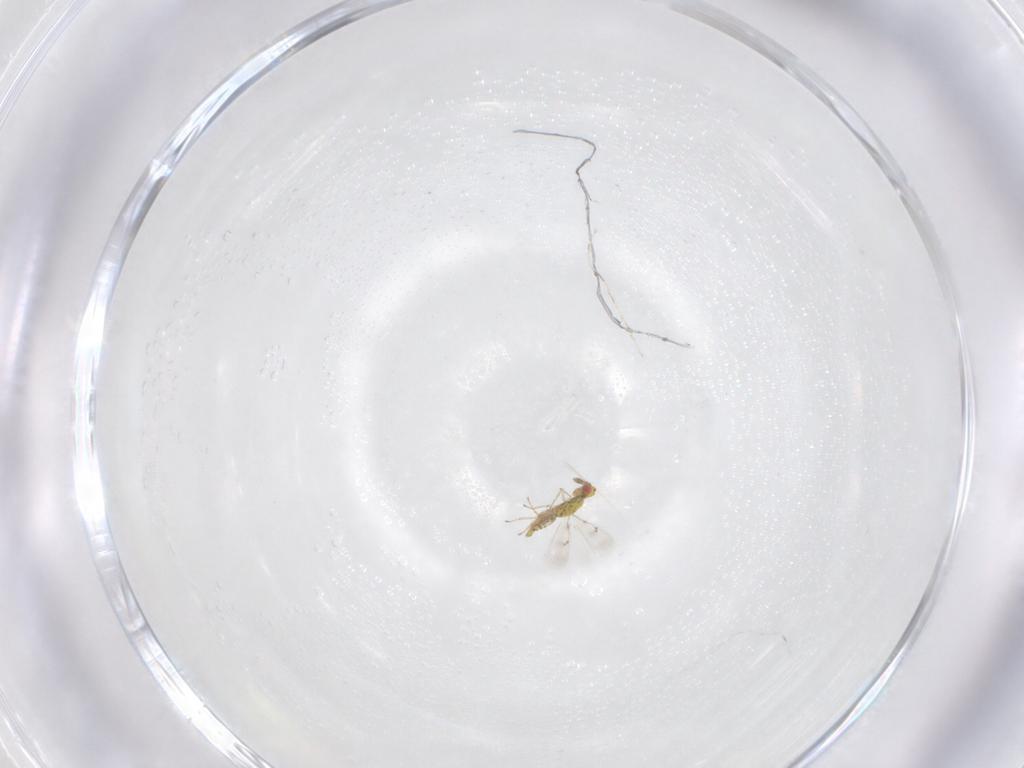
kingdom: Animalia
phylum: Arthropoda
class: Insecta
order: Hymenoptera
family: Eulophidae
